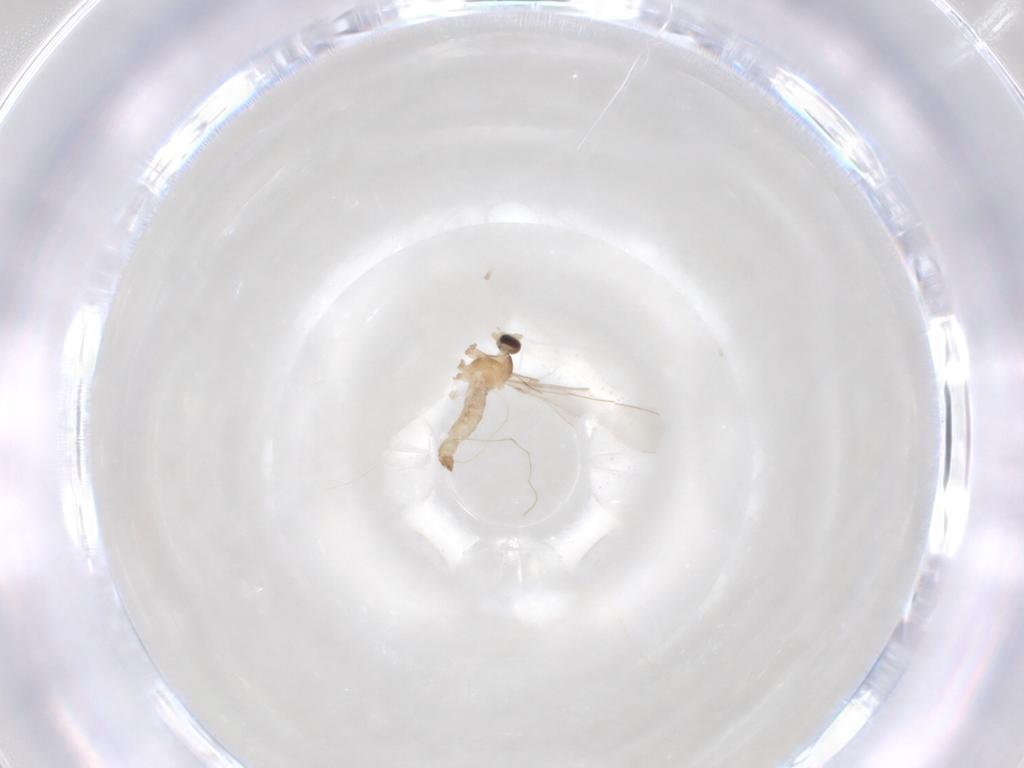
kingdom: Animalia
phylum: Arthropoda
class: Insecta
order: Diptera
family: Cecidomyiidae
